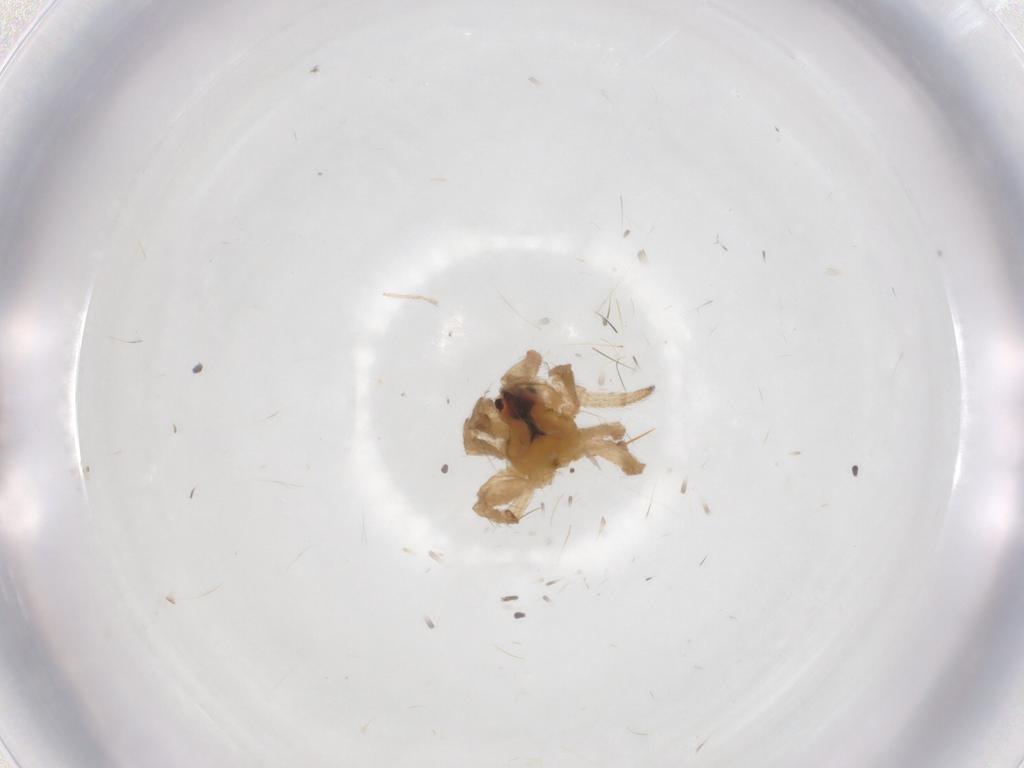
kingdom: Animalia
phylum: Arthropoda
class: Arachnida
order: Araneae
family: Araneidae
